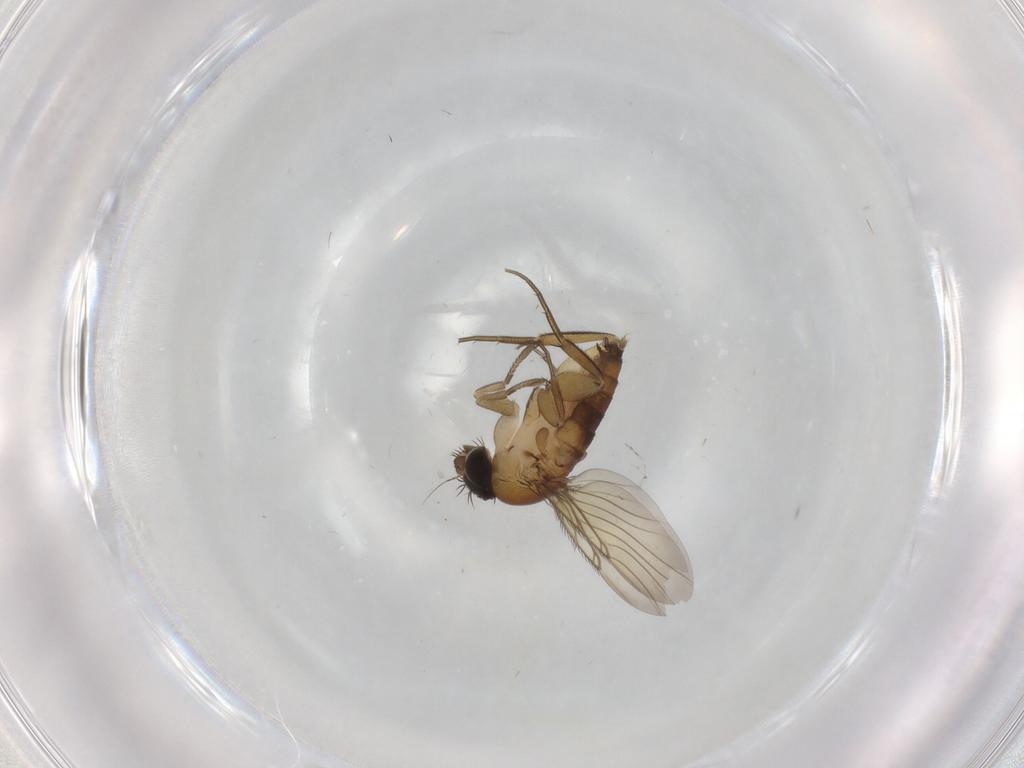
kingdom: Animalia
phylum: Arthropoda
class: Insecta
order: Diptera
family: Phoridae
